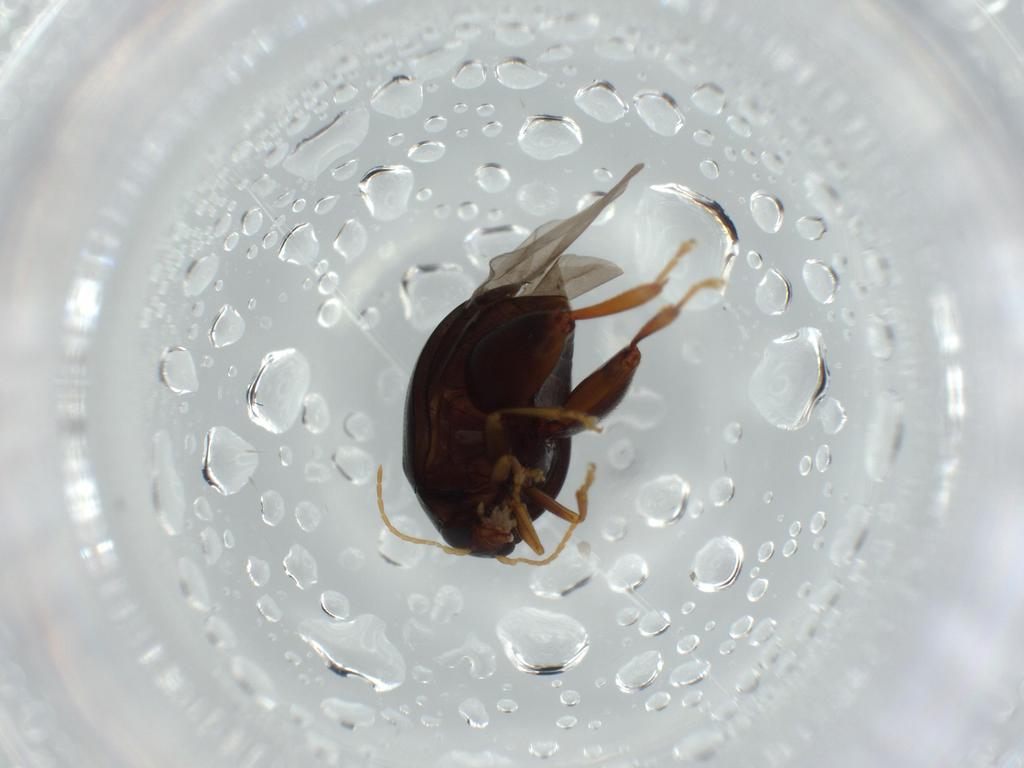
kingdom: Animalia
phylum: Arthropoda
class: Insecta
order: Coleoptera
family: Chrysomelidae
